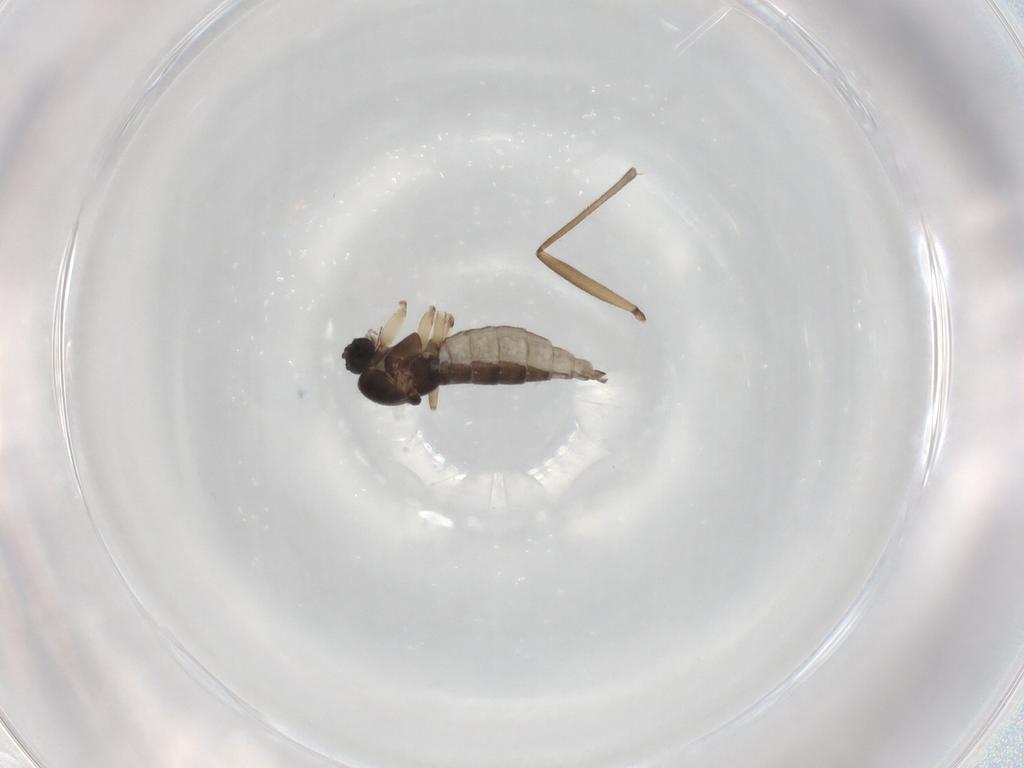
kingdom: Animalia
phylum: Arthropoda
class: Insecta
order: Diptera
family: Sciaridae
